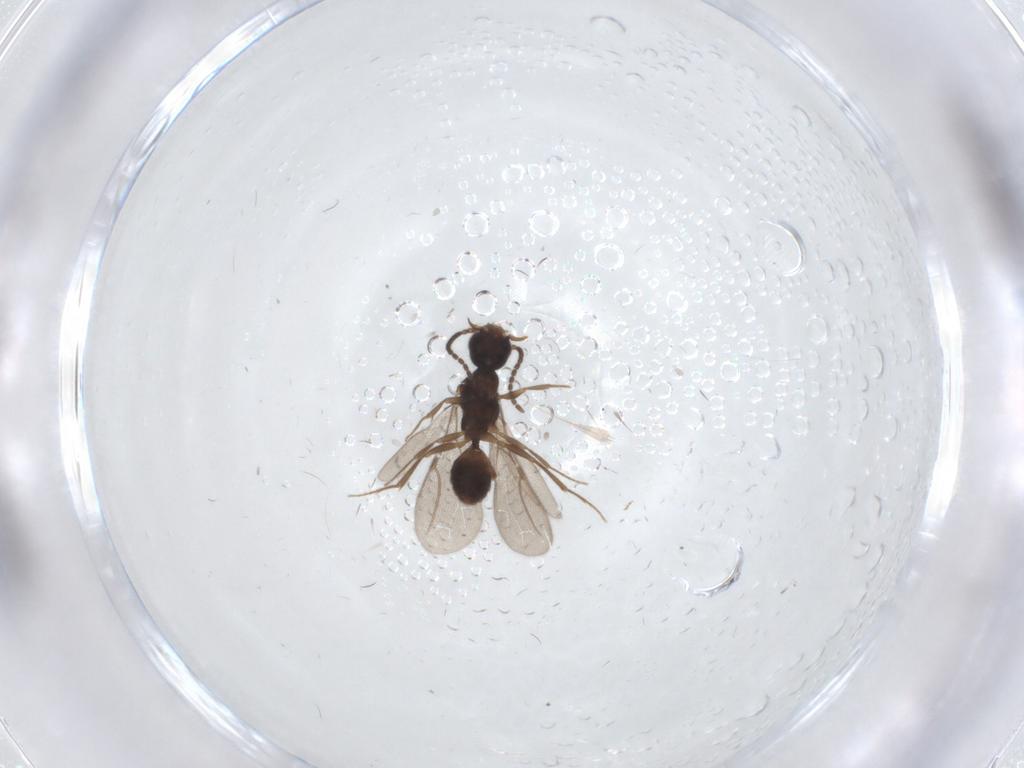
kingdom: Animalia
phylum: Arthropoda
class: Insecta
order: Hymenoptera
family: Bethylidae
